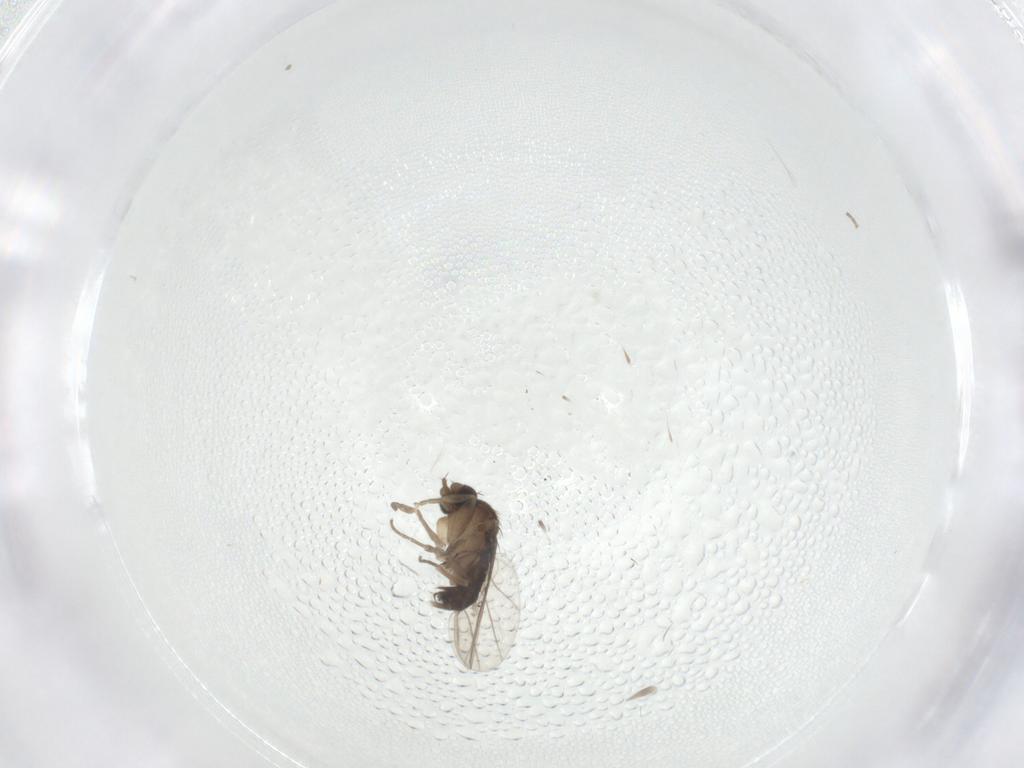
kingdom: Animalia
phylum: Arthropoda
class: Insecta
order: Diptera
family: Phoridae
